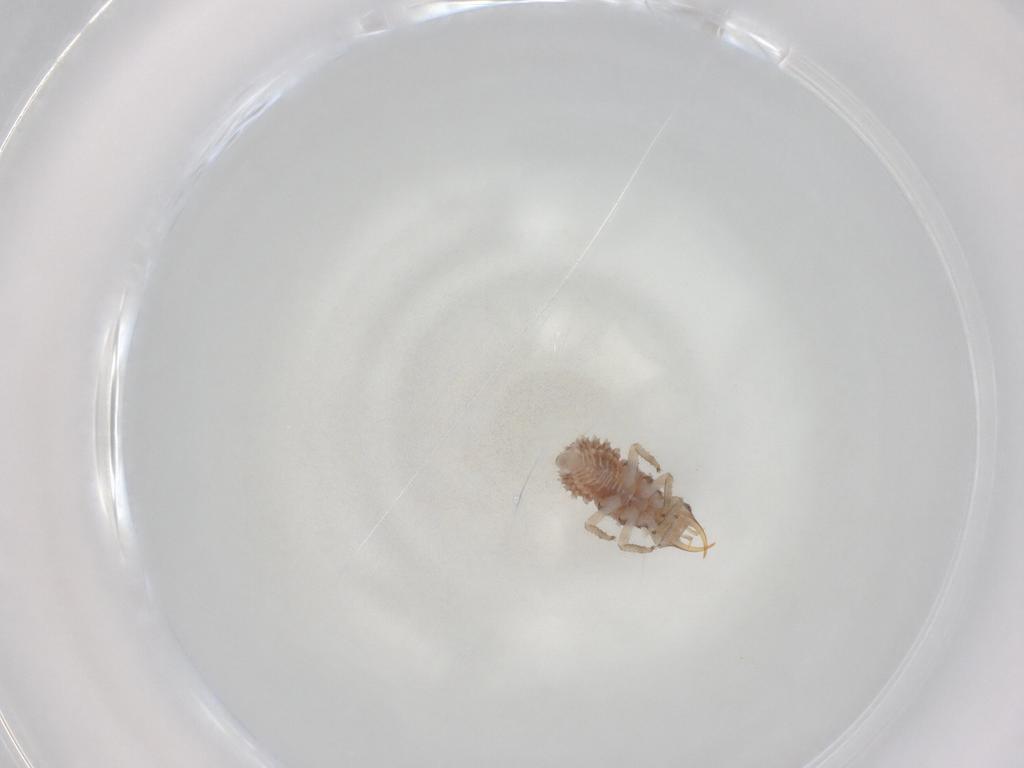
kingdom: Animalia
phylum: Arthropoda
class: Insecta
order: Neuroptera
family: Chrysopidae
